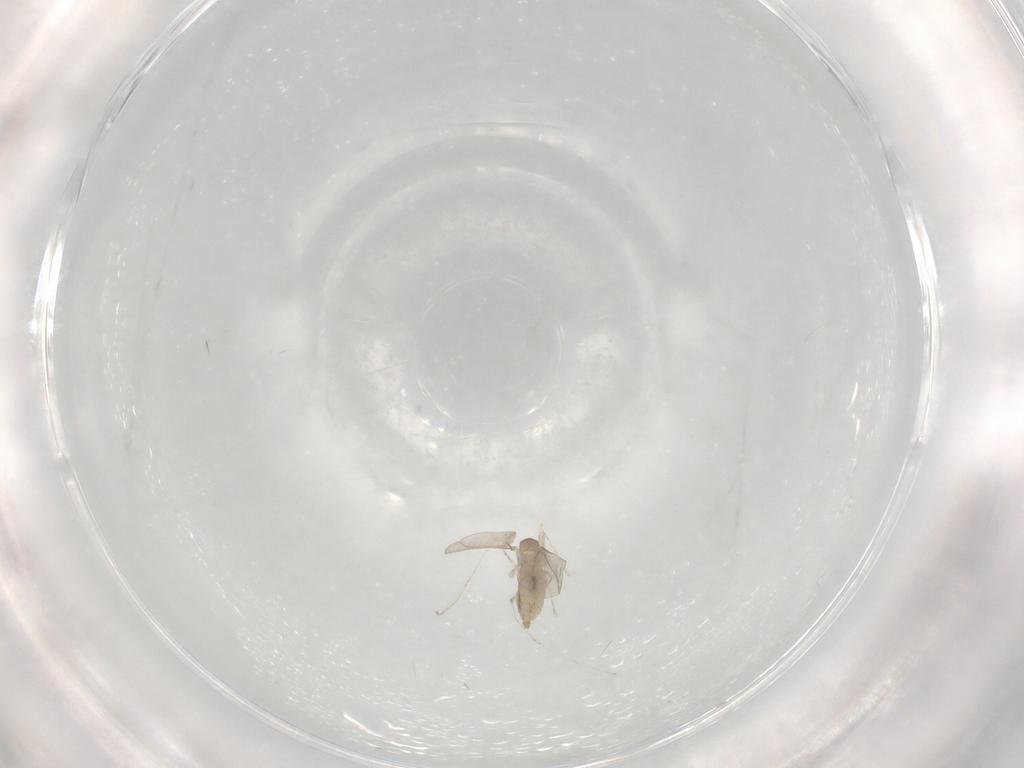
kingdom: Animalia
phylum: Arthropoda
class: Insecta
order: Diptera
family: Cecidomyiidae
